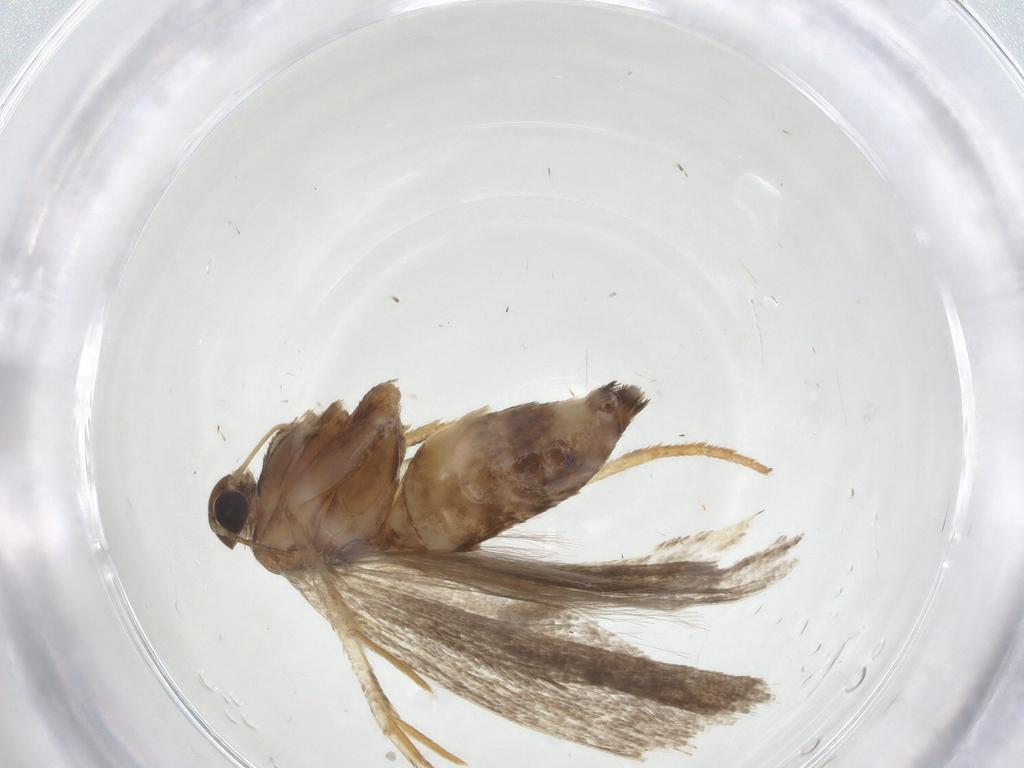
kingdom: Animalia
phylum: Arthropoda
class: Insecta
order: Lepidoptera
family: Gelechiidae
